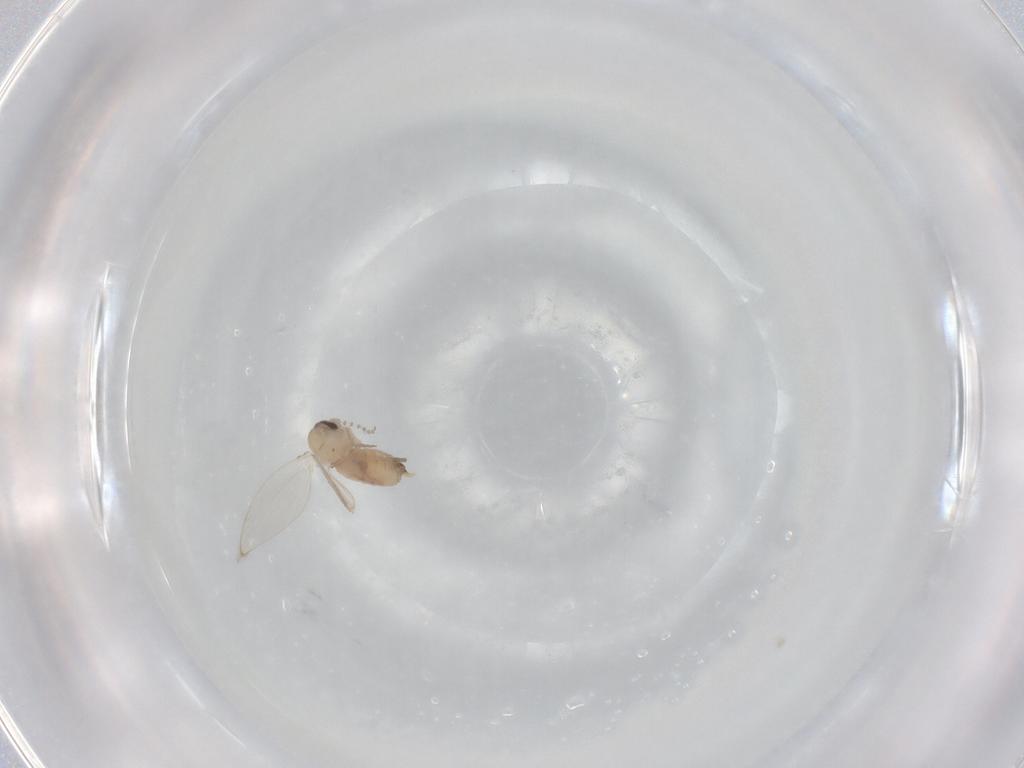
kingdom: Animalia
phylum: Arthropoda
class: Insecta
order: Diptera
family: Psychodidae
